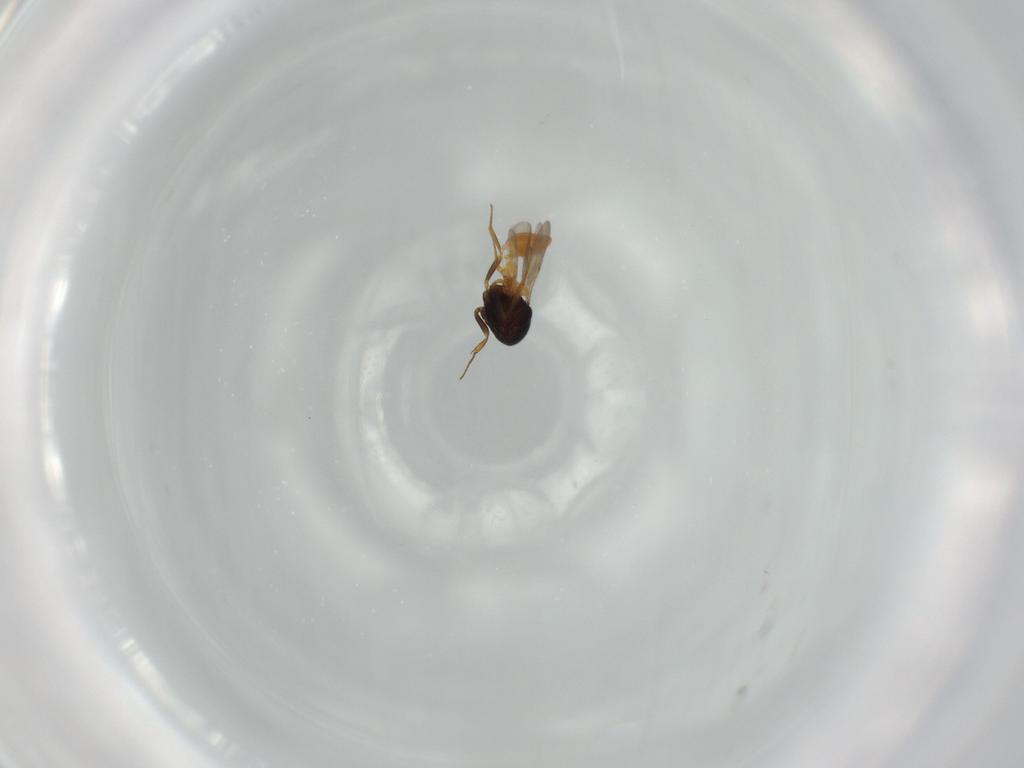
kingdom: Animalia
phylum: Arthropoda
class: Insecta
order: Hymenoptera
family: Scelionidae
